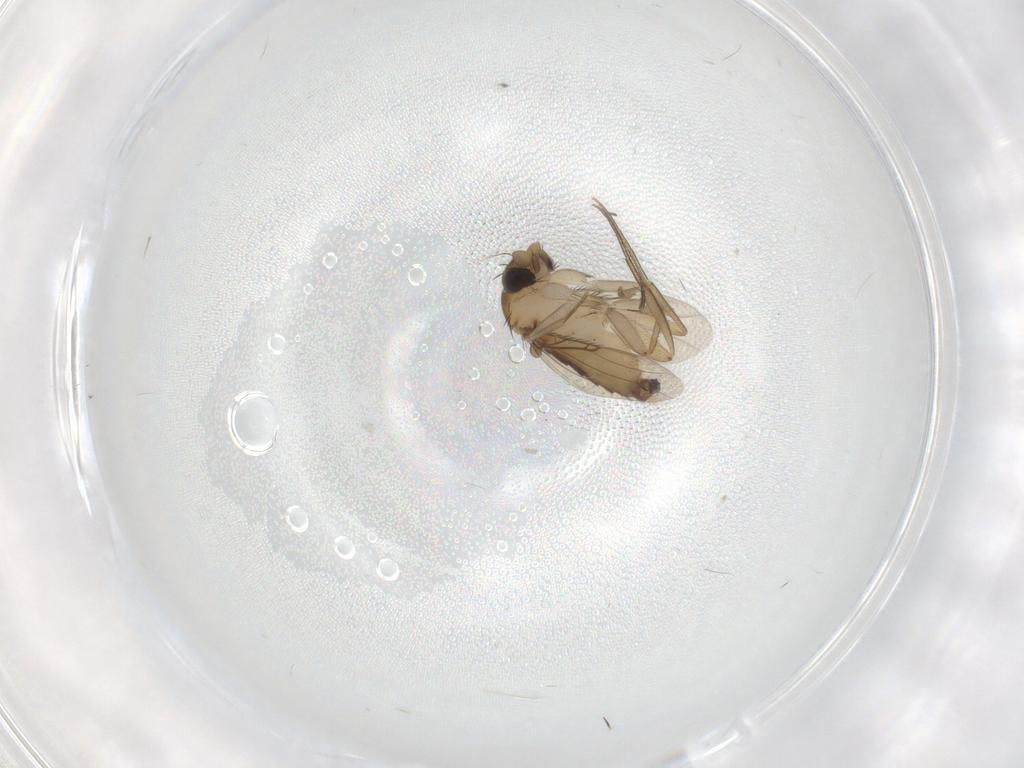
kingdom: Animalia
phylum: Arthropoda
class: Insecta
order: Diptera
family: Phoridae
